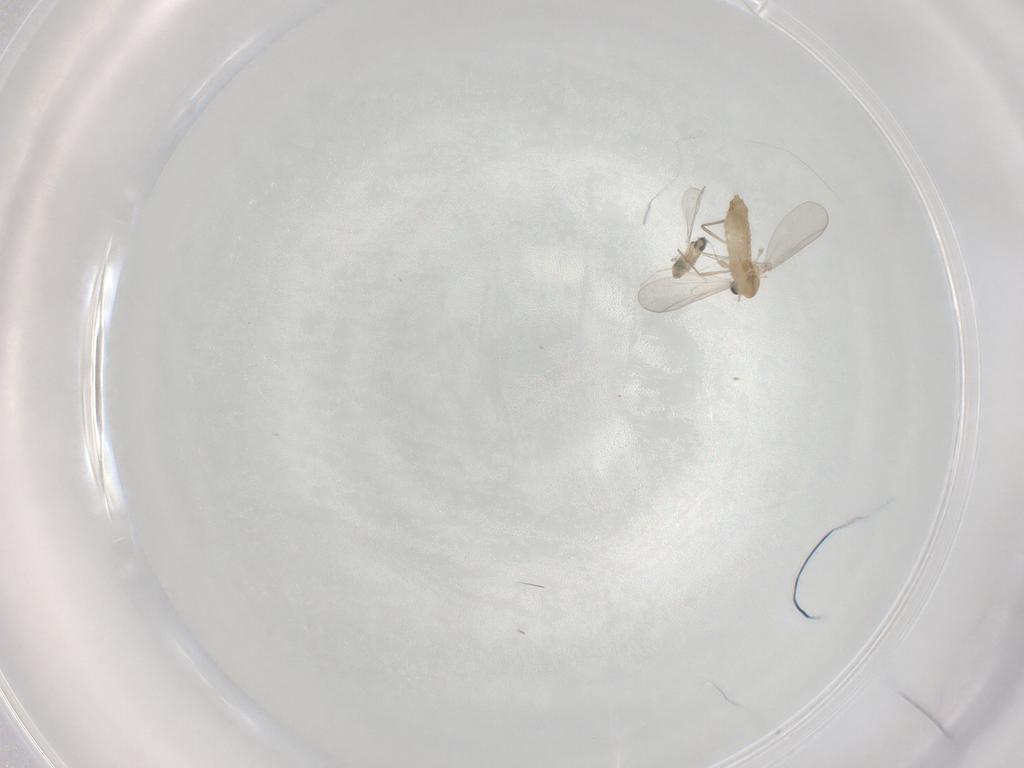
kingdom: Animalia
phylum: Arthropoda
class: Insecta
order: Diptera
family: Chironomidae
